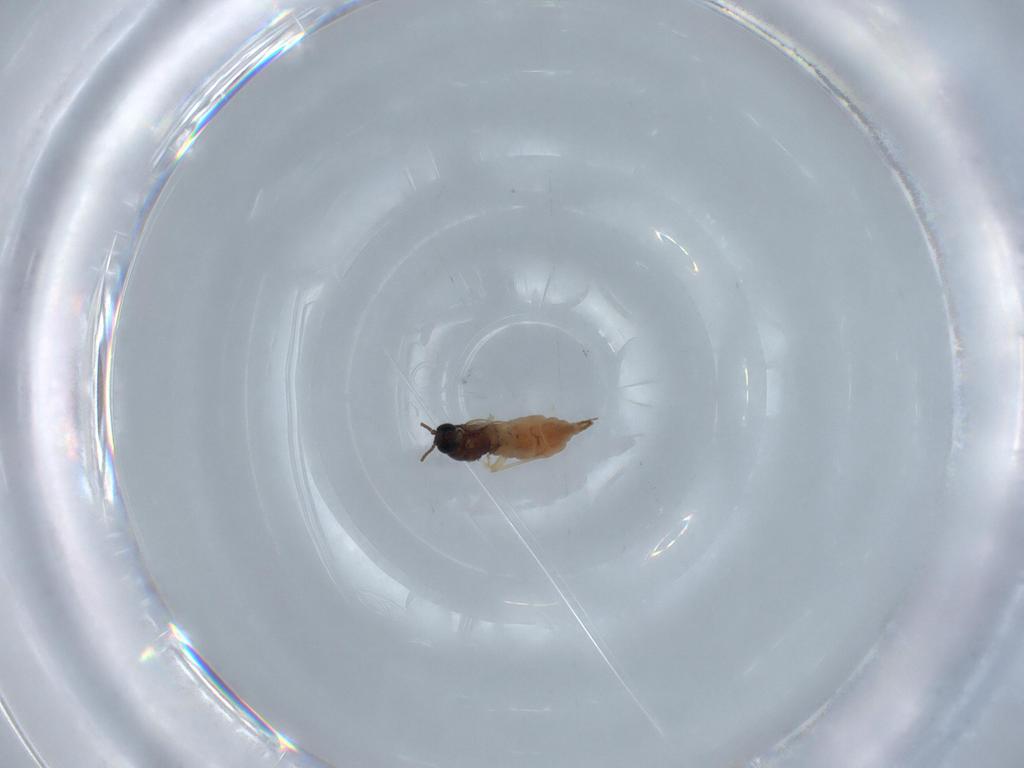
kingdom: Animalia
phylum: Arthropoda
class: Insecta
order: Diptera
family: Sciaridae
